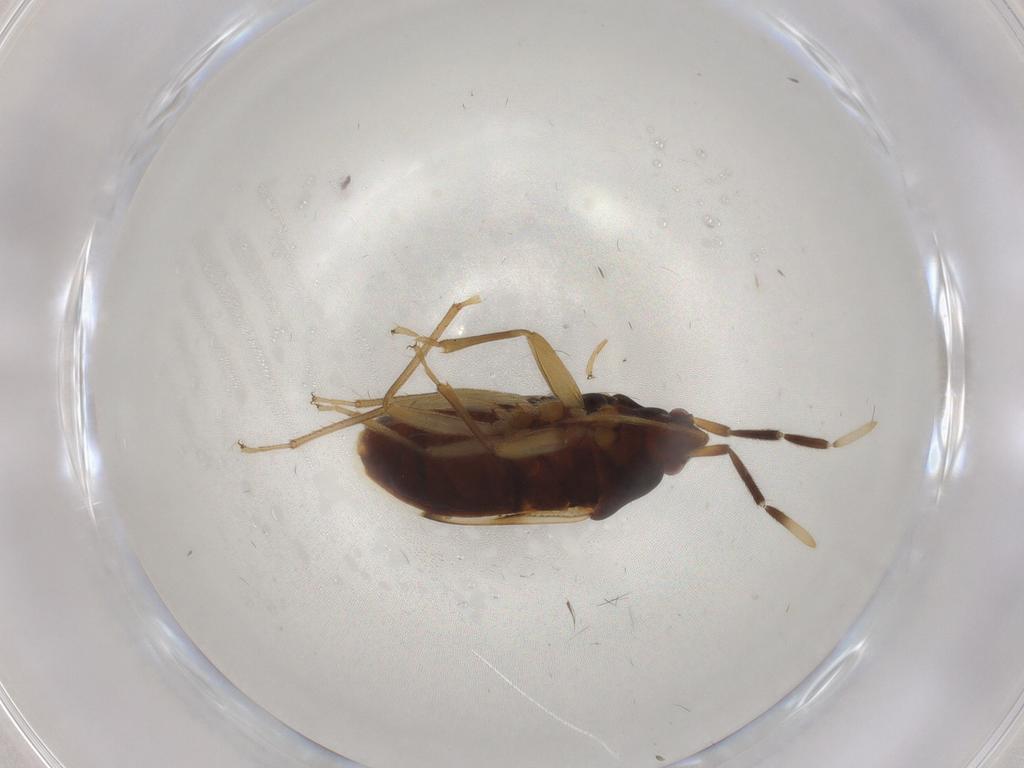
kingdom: Animalia
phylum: Arthropoda
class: Insecta
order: Hemiptera
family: Rhyparochromidae
